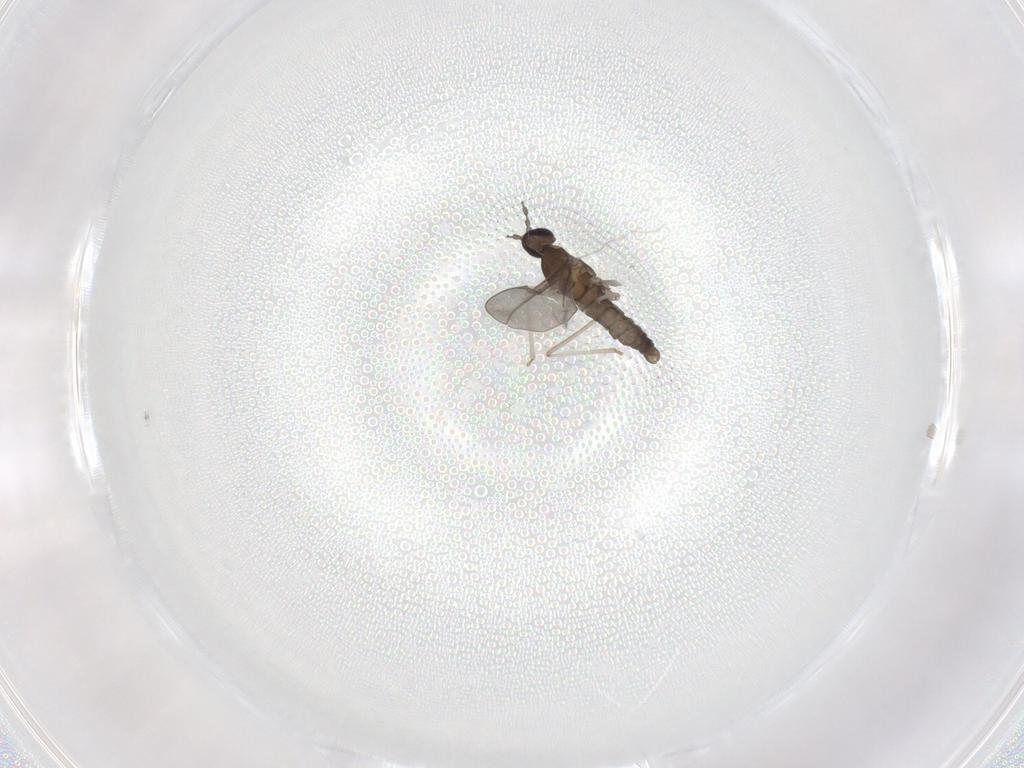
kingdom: Animalia
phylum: Arthropoda
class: Insecta
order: Diptera
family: Cecidomyiidae
